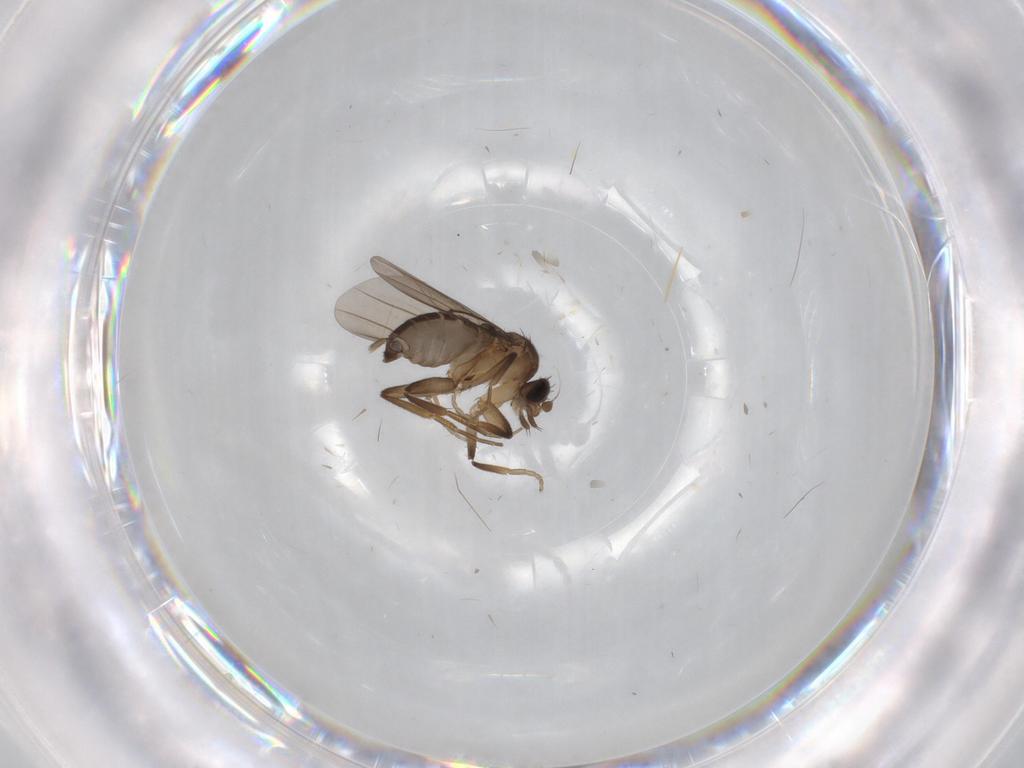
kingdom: Animalia
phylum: Arthropoda
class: Insecta
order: Diptera
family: Phoridae
